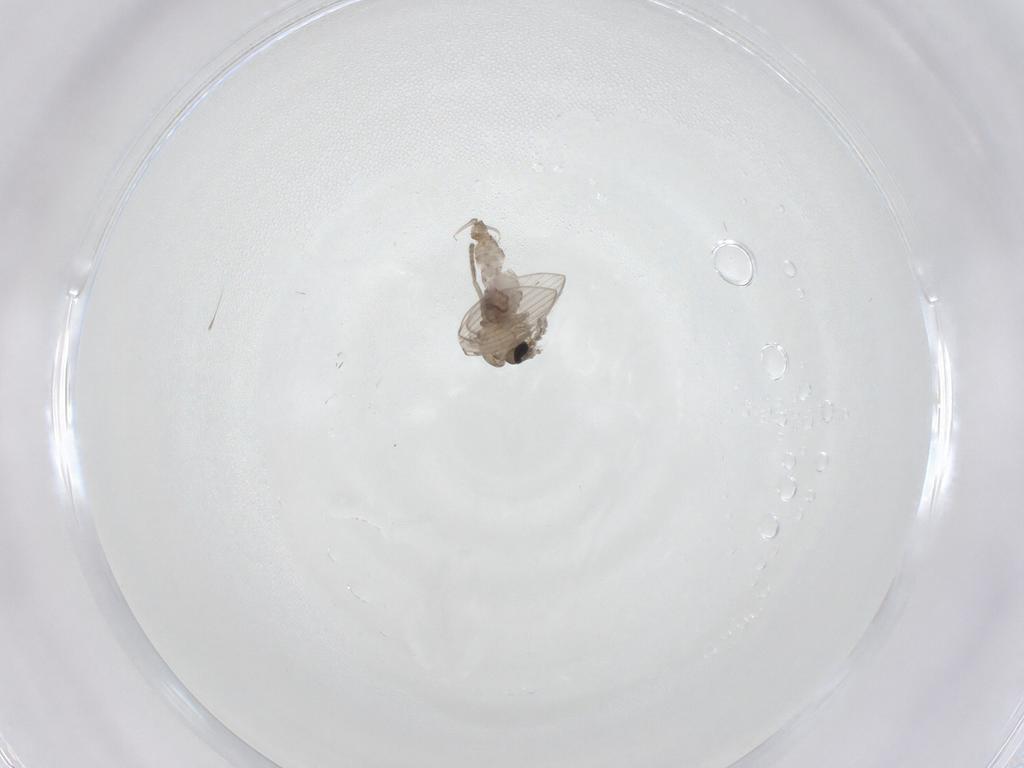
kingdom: Animalia
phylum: Arthropoda
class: Insecta
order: Diptera
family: Psychodidae
